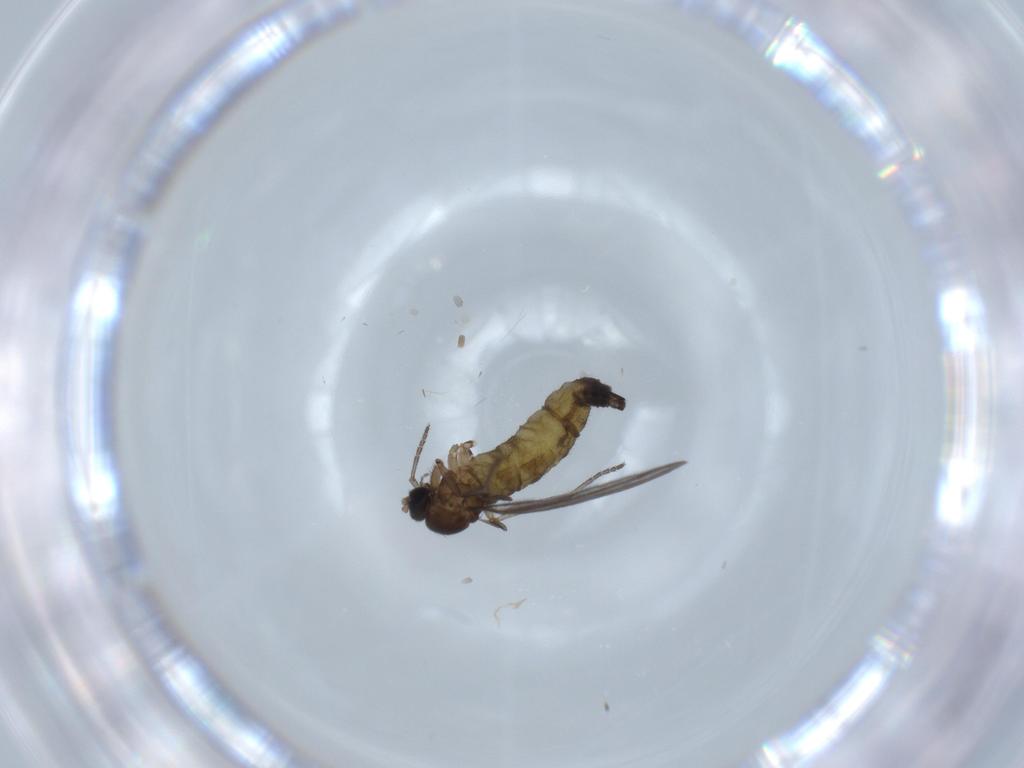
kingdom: Animalia
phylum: Arthropoda
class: Insecta
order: Diptera
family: Sciaridae
